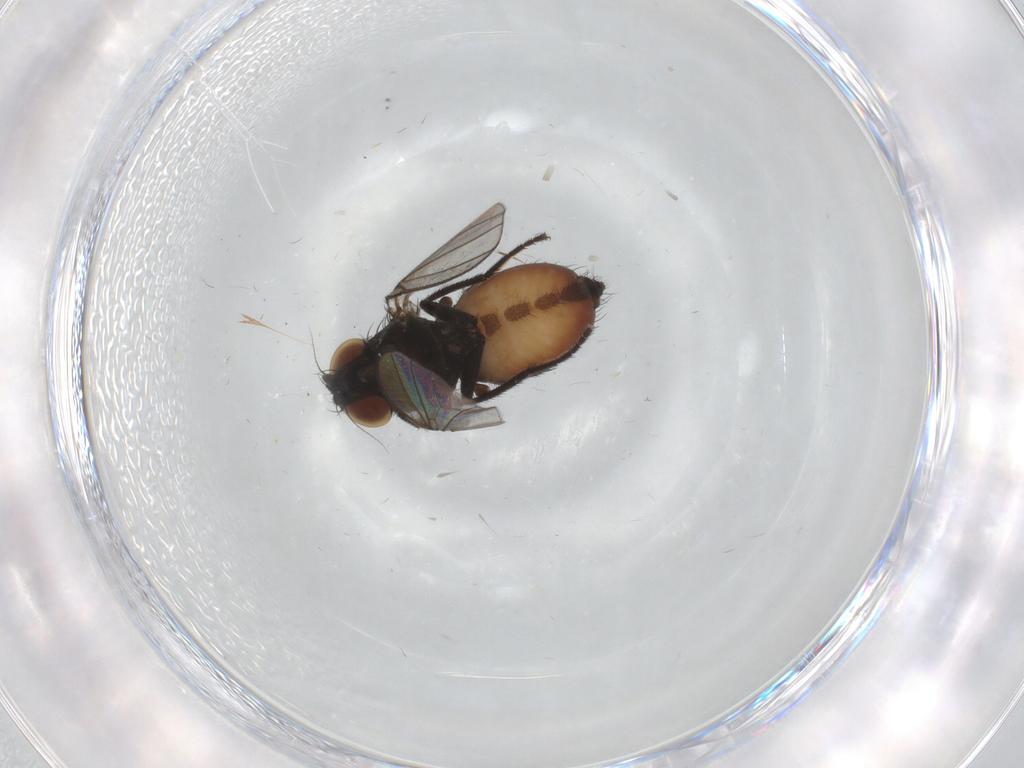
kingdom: Animalia
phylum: Arthropoda
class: Insecta
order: Diptera
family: Milichiidae
